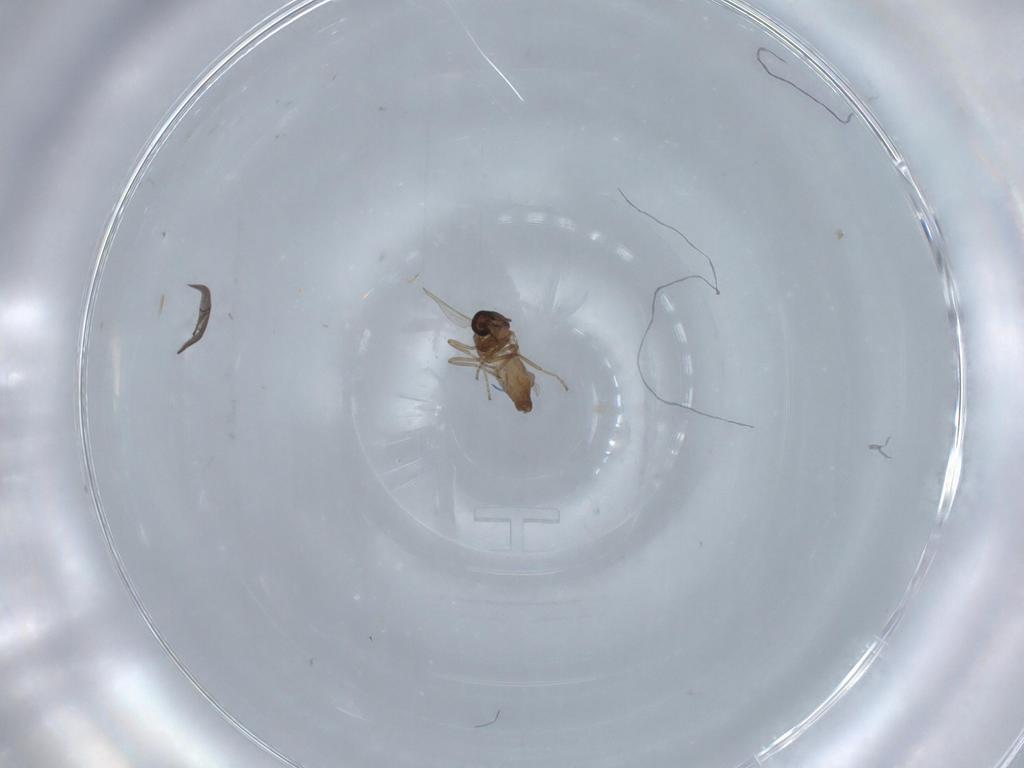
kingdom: Animalia
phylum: Arthropoda
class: Insecta
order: Diptera
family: Ceratopogonidae
